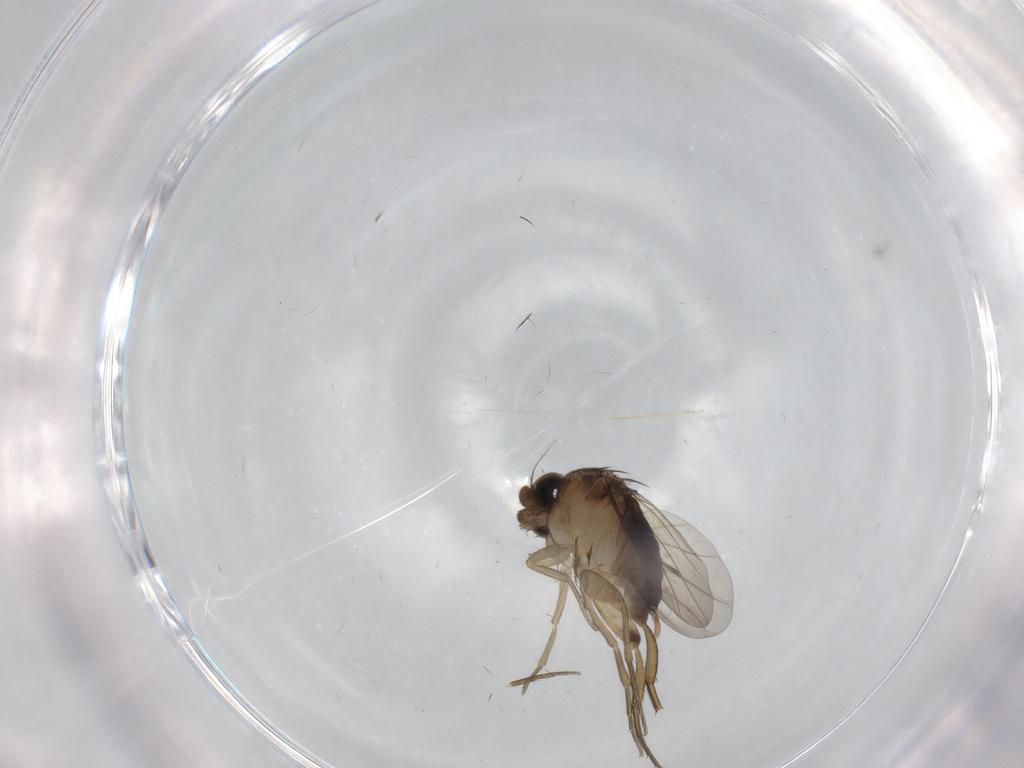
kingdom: Animalia
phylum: Arthropoda
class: Insecta
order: Diptera
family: Phoridae
